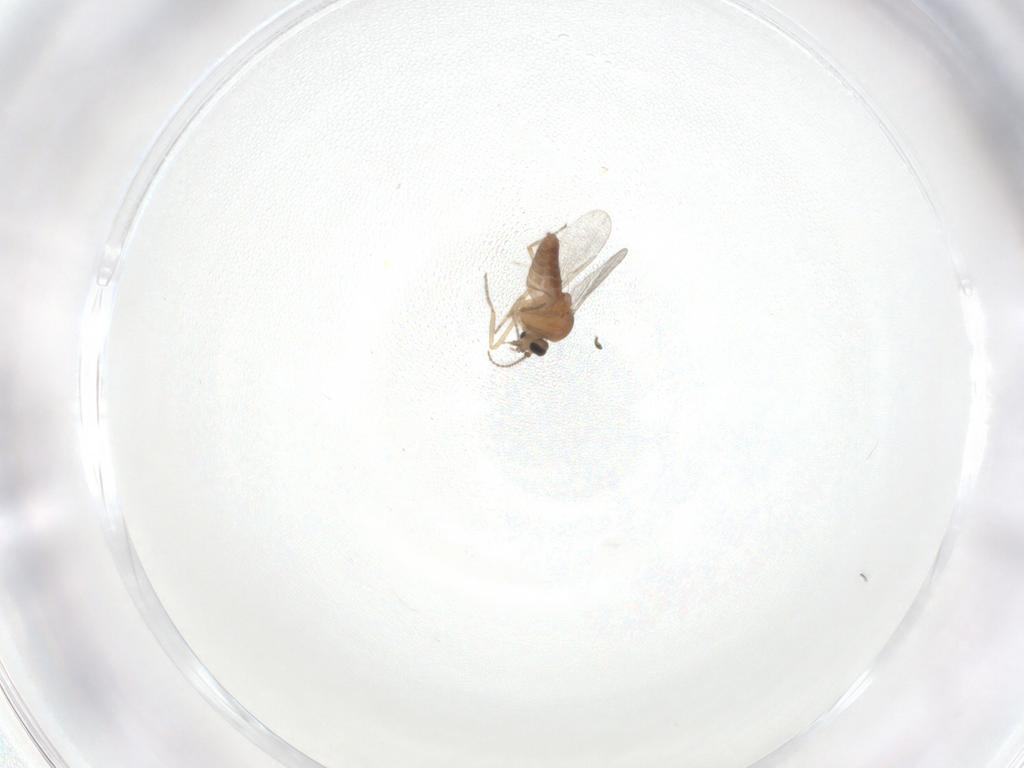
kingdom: Animalia
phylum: Arthropoda
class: Insecta
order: Diptera
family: Ceratopogonidae
